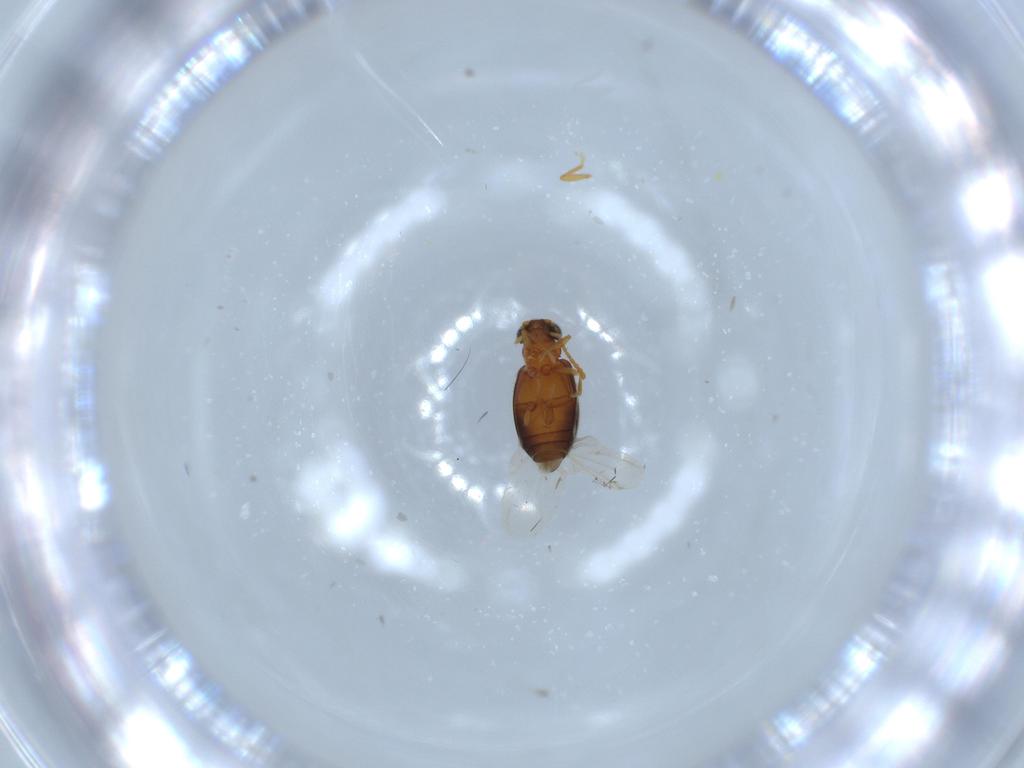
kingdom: Animalia
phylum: Arthropoda
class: Insecta
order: Coleoptera
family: Aderidae
